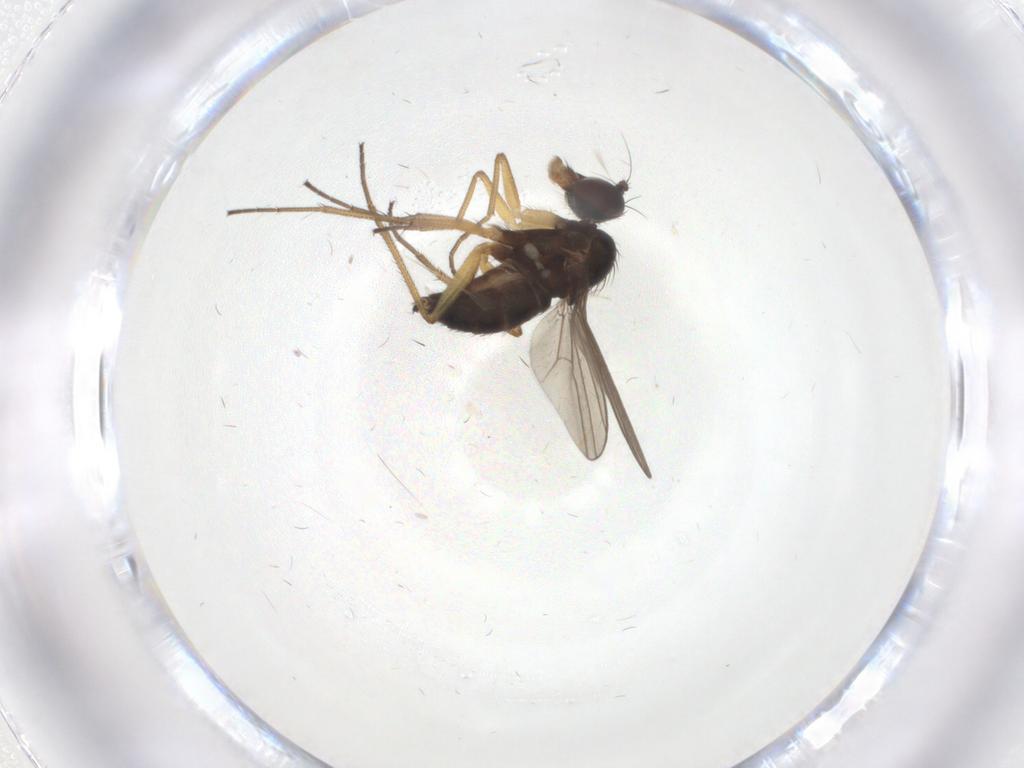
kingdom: Animalia
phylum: Arthropoda
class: Insecta
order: Diptera
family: Dolichopodidae
